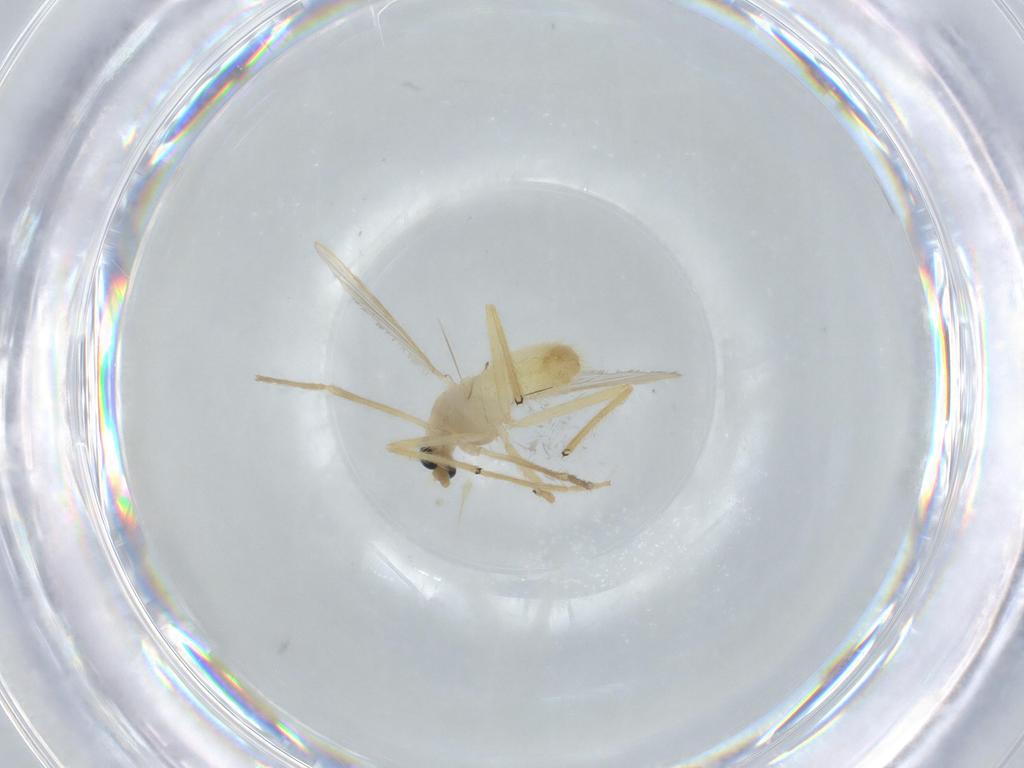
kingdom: Animalia
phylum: Arthropoda
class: Insecta
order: Diptera
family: Chironomidae
